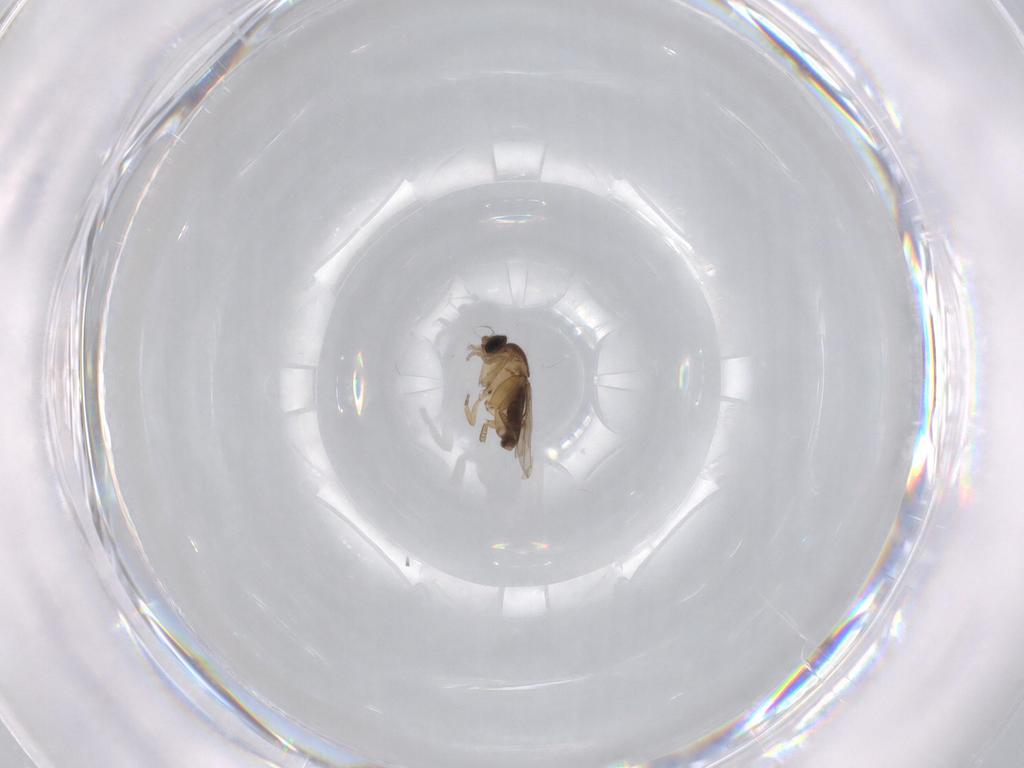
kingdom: Animalia
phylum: Arthropoda
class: Insecta
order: Diptera
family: Phoridae
